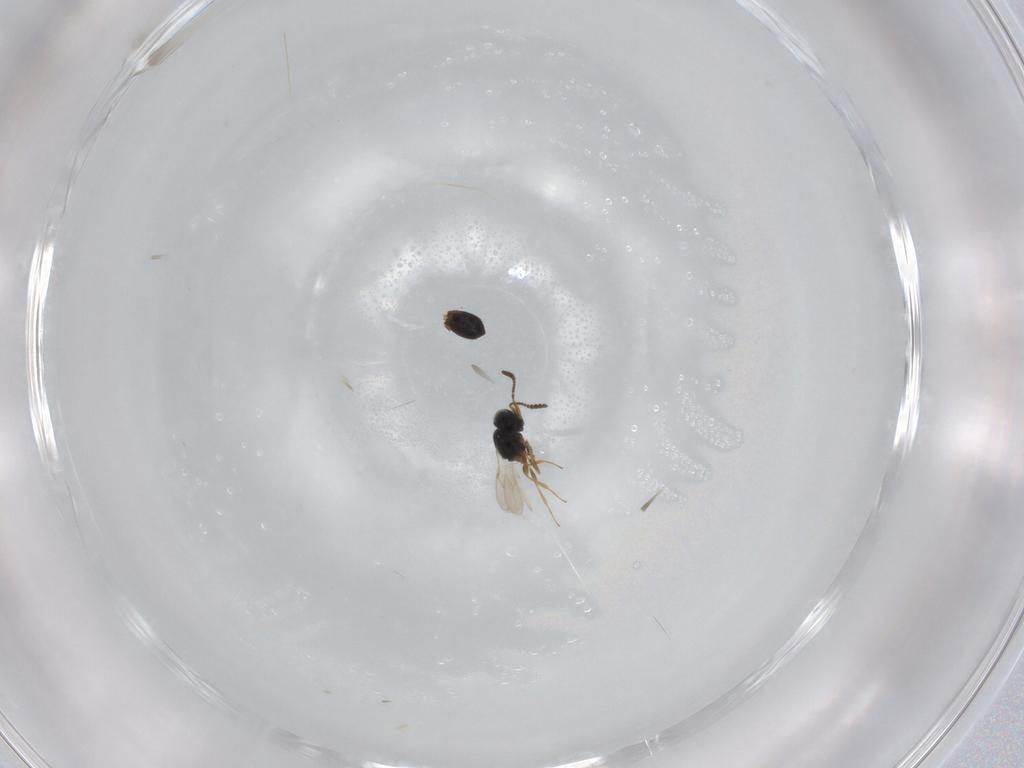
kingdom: Animalia
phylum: Arthropoda
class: Insecta
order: Hymenoptera
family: Scelionidae
